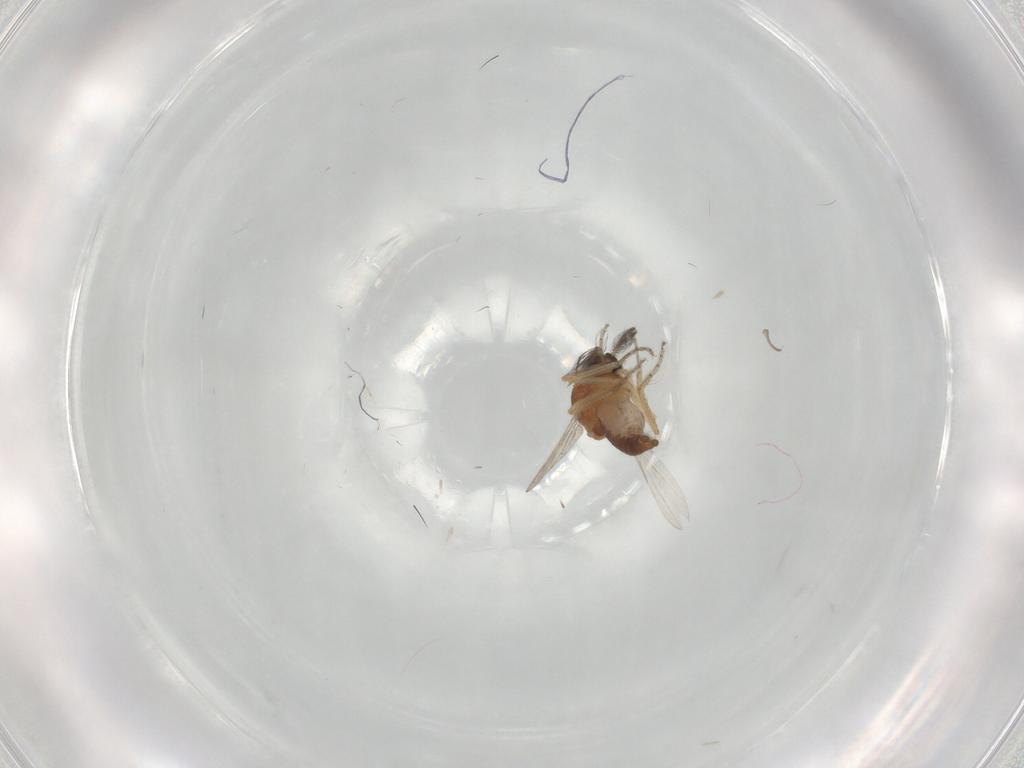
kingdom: Animalia
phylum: Arthropoda
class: Insecta
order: Diptera
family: Ceratopogonidae
